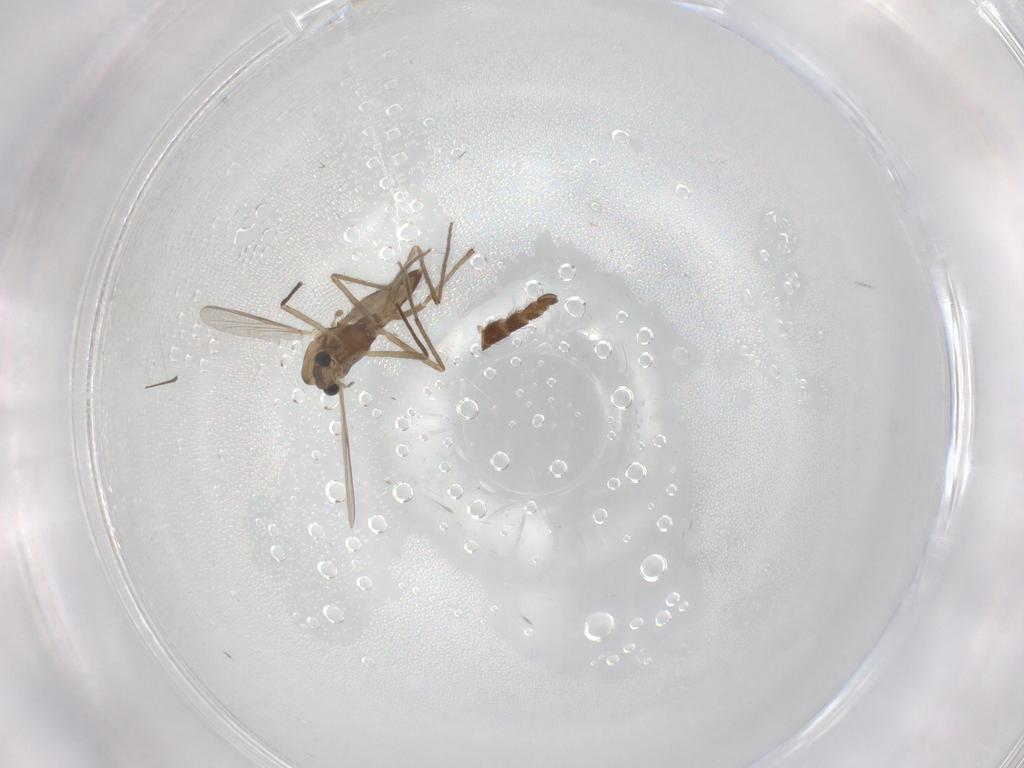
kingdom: Animalia
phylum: Arthropoda
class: Insecta
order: Diptera
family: Chironomidae
